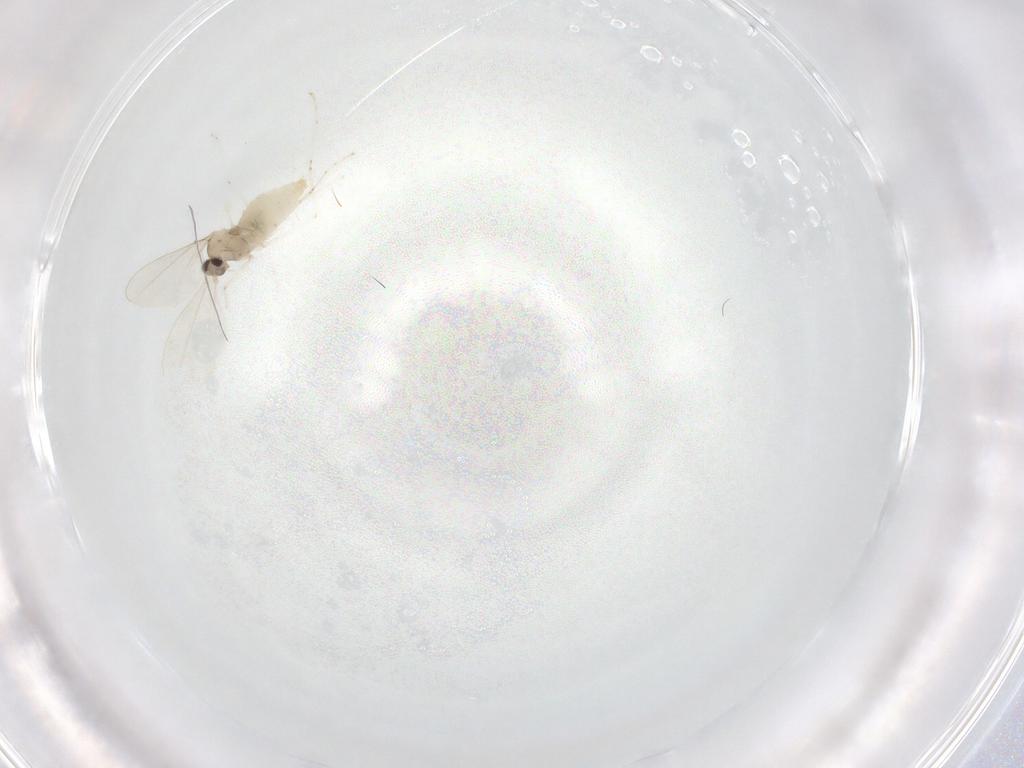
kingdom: Animalia
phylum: Arthropoda
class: Insecta
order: Diptera
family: Cecidomyiidae
